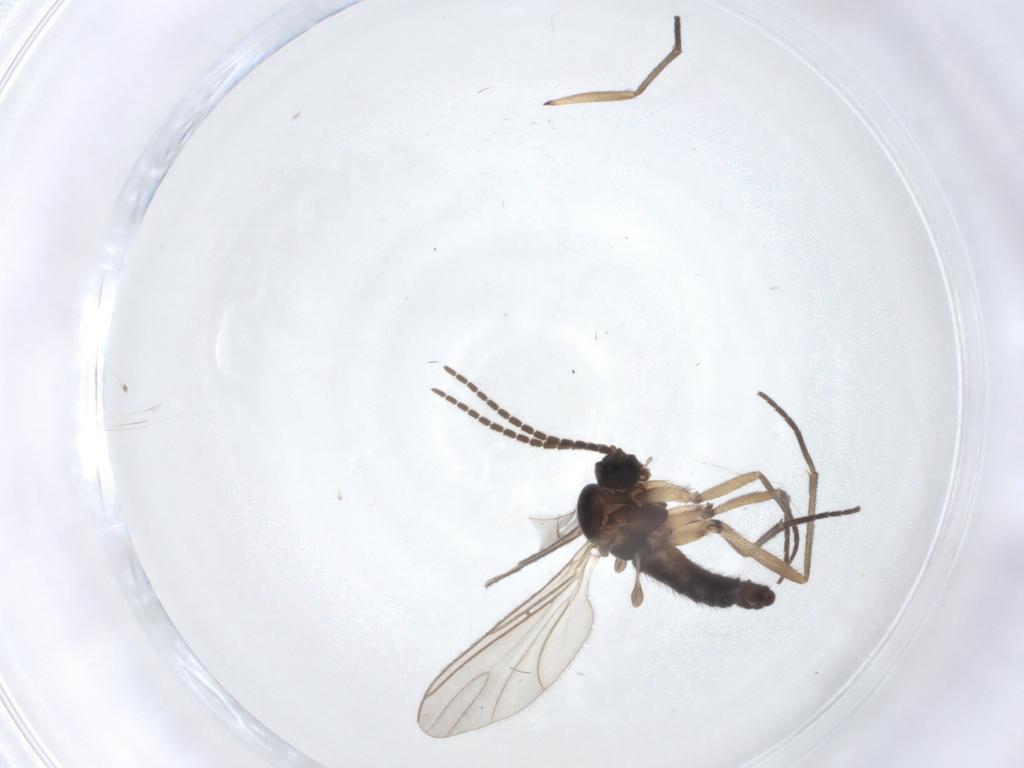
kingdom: Animalia
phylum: Arthropoda
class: Insecta
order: Diptera
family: Sciaridae
